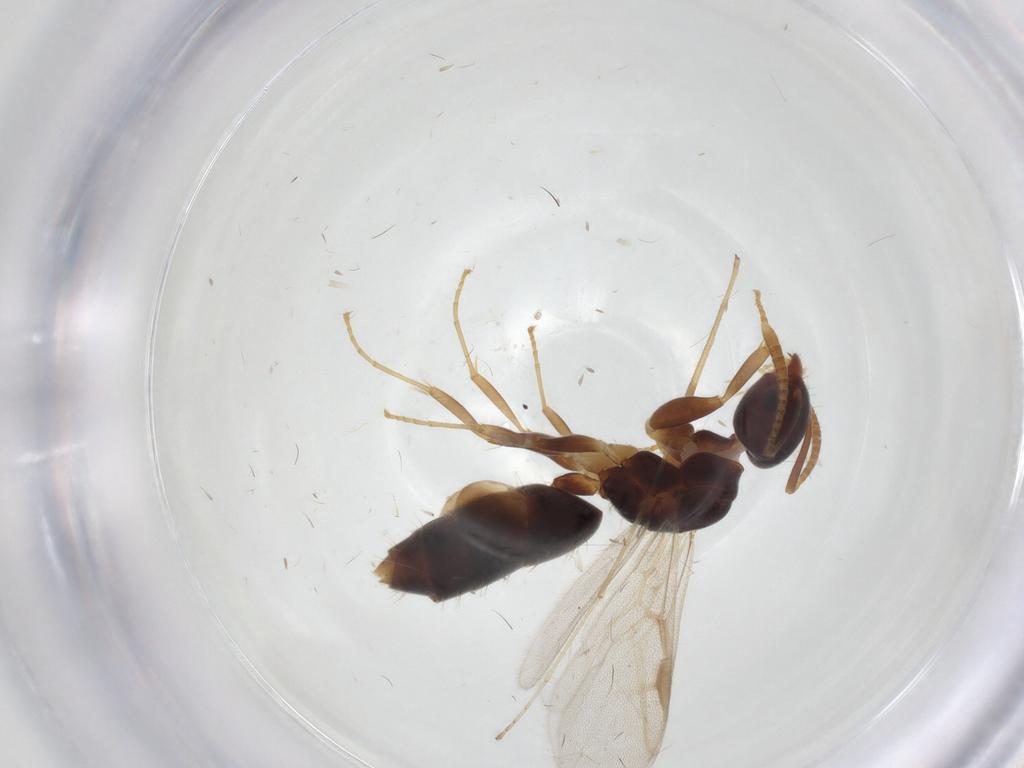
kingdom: Animalia
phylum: Arthropoda
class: Insecta
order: Hymenoptera
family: Formicidae
